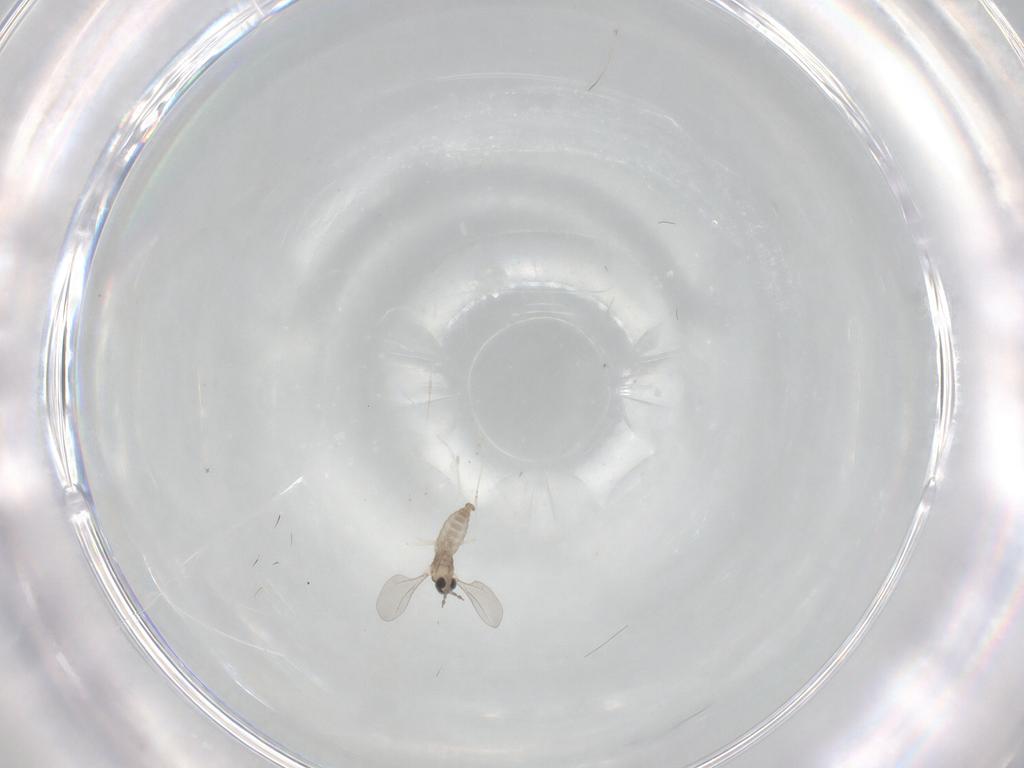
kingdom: Animalia
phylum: Arthropoda
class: Insecta
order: Diptera
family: Cecidomyiidae
